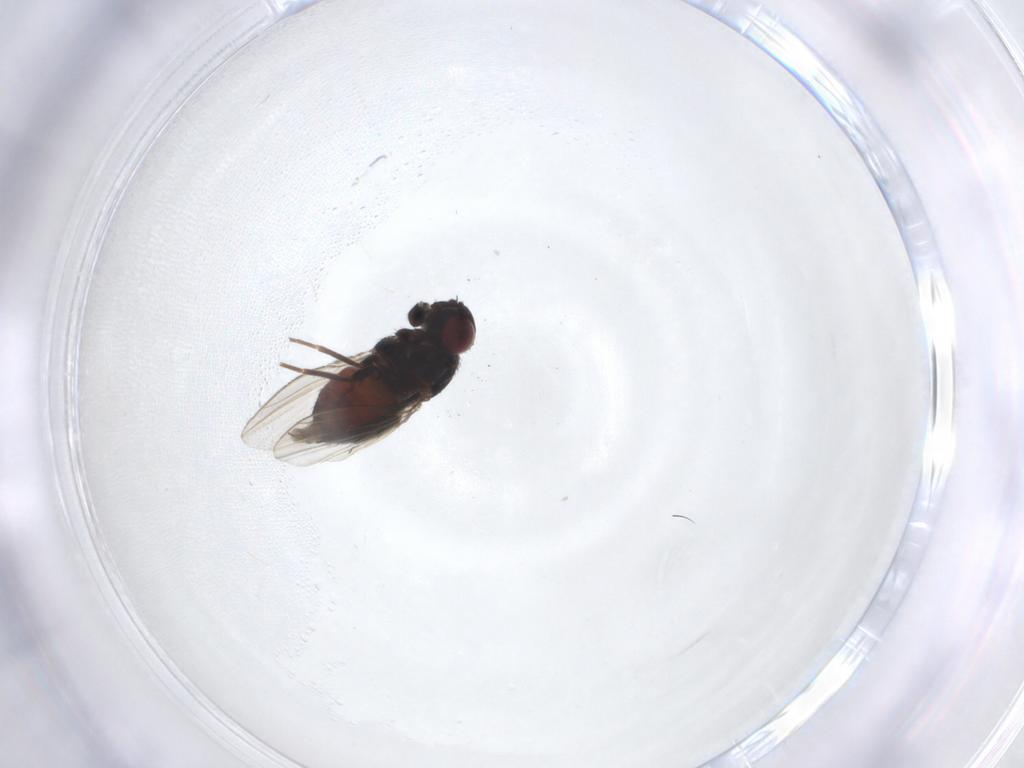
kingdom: Animalia
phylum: Arthropoda
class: Insecta
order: Diptera
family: Carnidae
